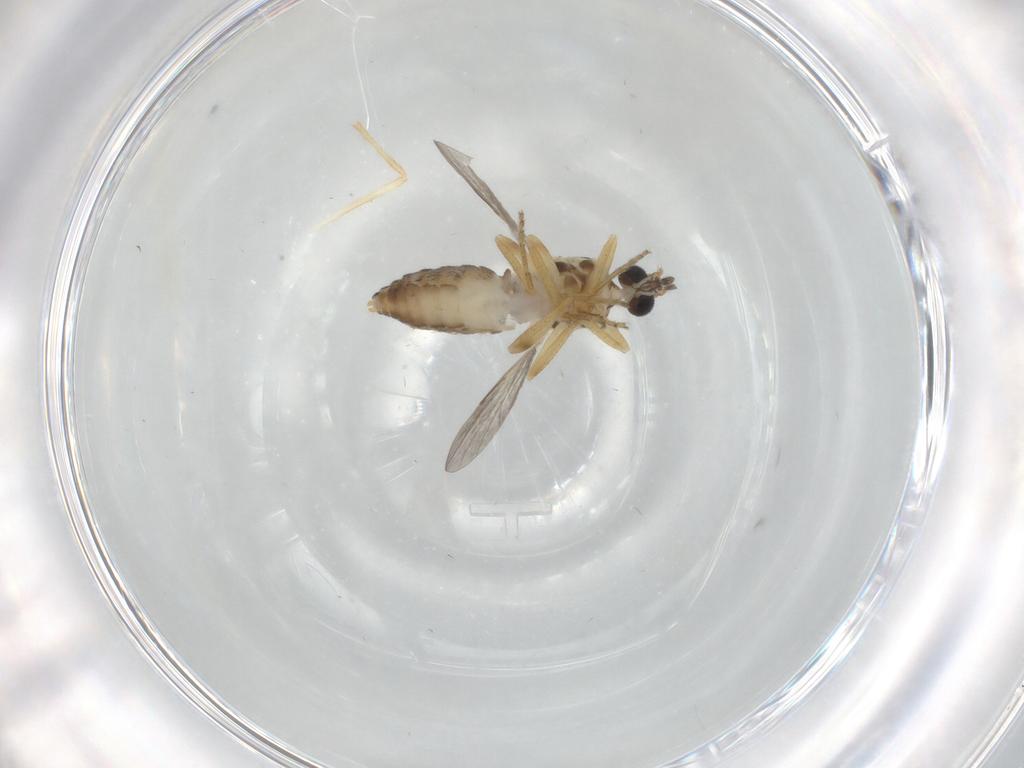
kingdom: Animalia
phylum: Arthropoda
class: Insecta
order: Diptera
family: Ceratopogonidae
